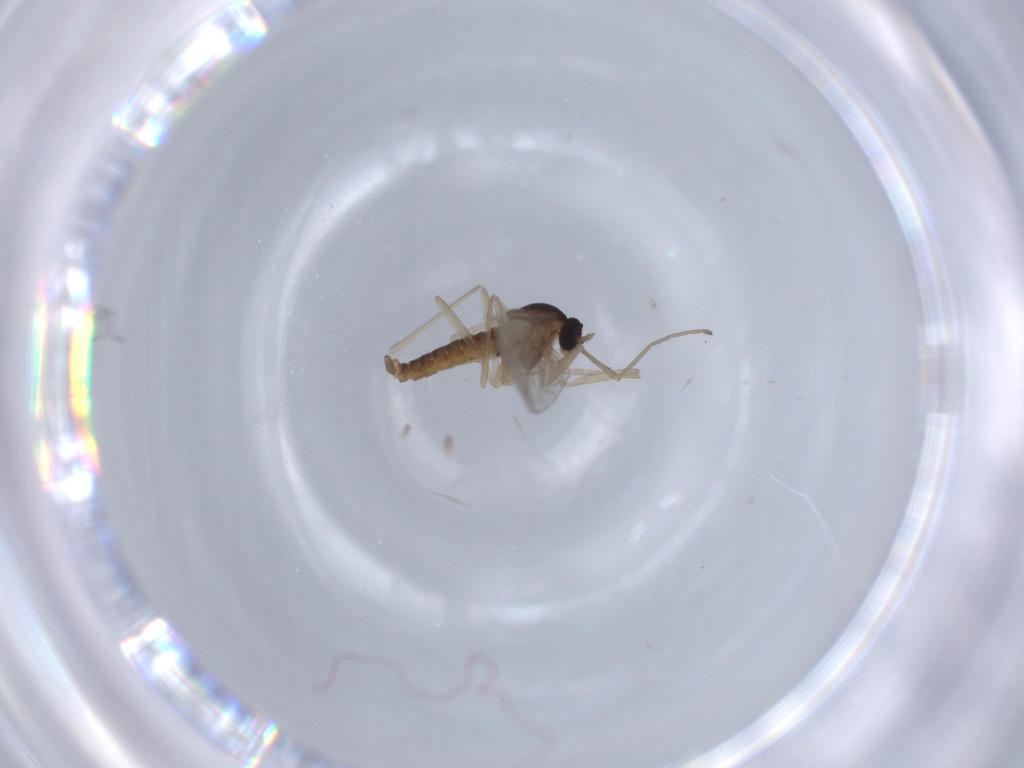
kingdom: Animalia
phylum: Arthropoda
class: Insecta
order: Diptera
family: Cecidomyiidae
